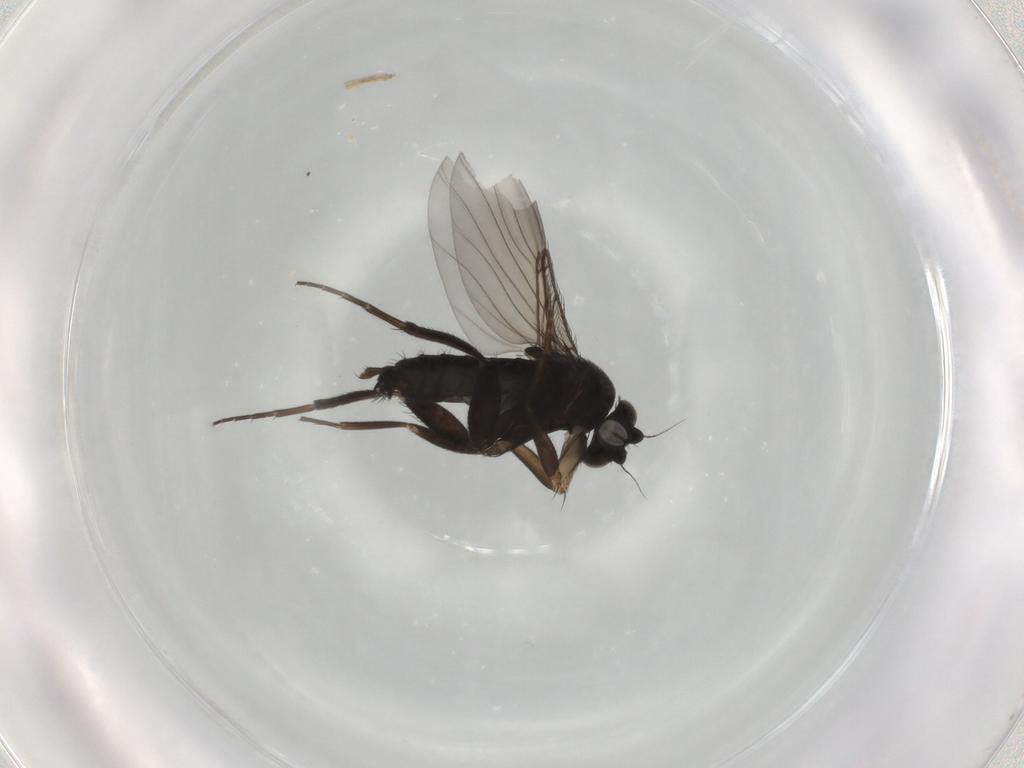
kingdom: Animalia
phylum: Arthropoda
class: Insecta
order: Diptera
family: Phoridae
